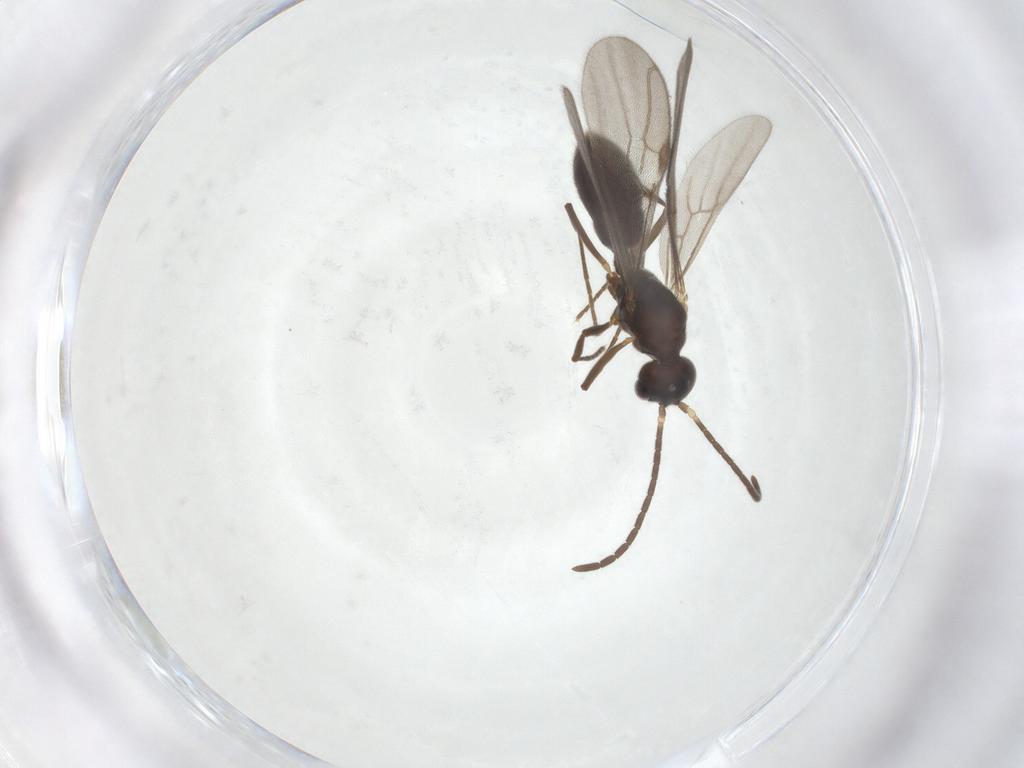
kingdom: Animalia
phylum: Arthropoda
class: Insecta
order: Hymenoptera
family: Formicidae
